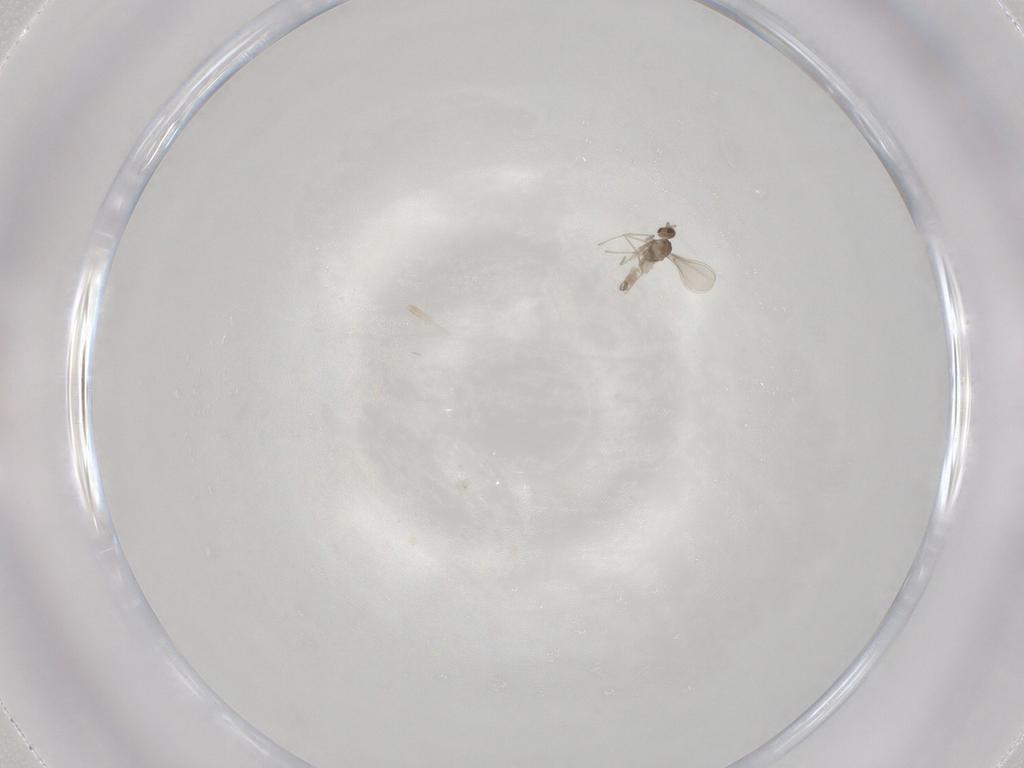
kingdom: Animalia
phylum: Arthropoda
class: Insecta
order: Diptera
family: Cecidomyiidae
